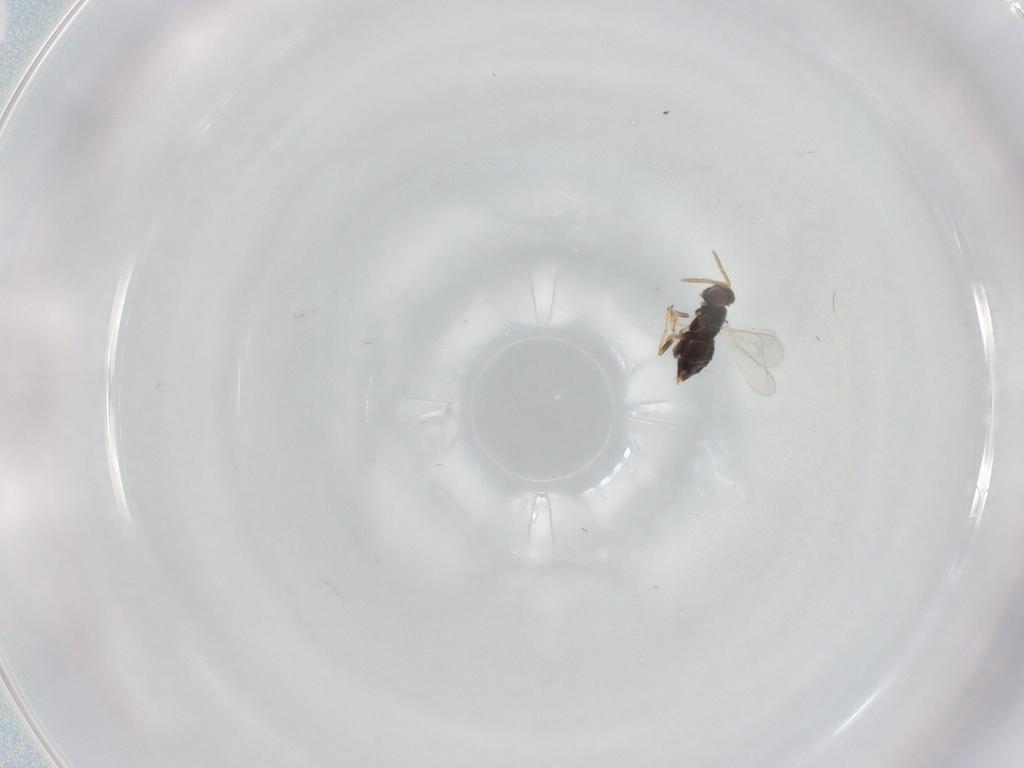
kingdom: Animalia
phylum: Arthropoda
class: Insecta
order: Hymenoptera
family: Aphelinidae
